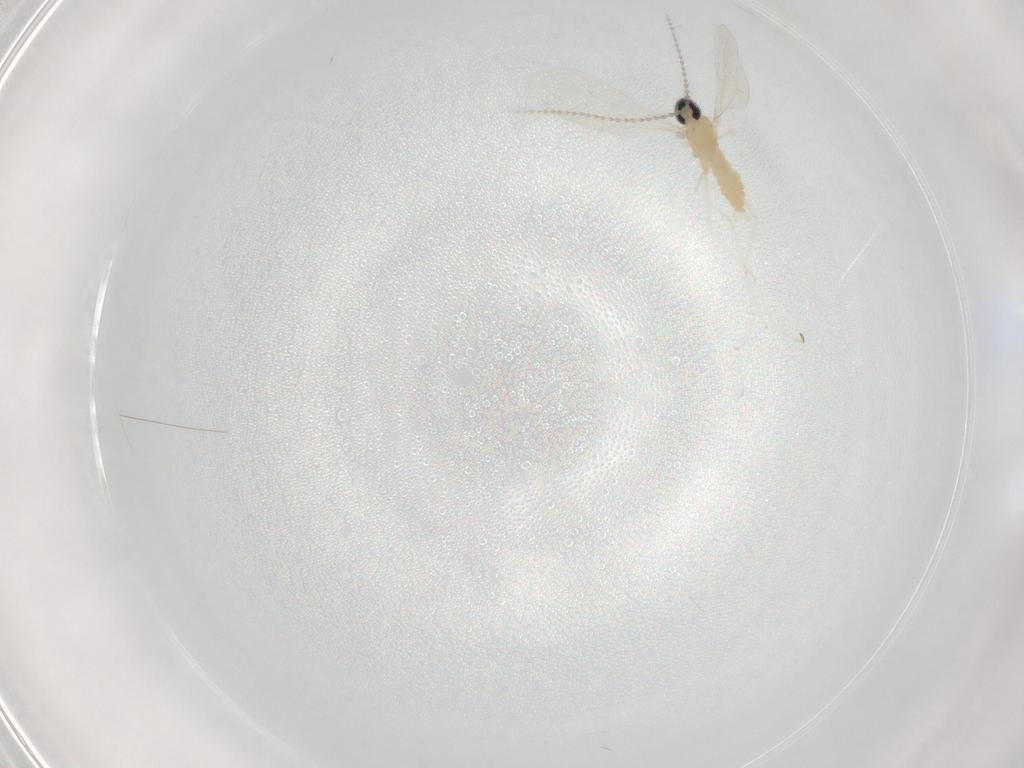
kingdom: Animalia
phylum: Arthropoda
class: Insecta
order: Diptera
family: Cecidomyiidae
